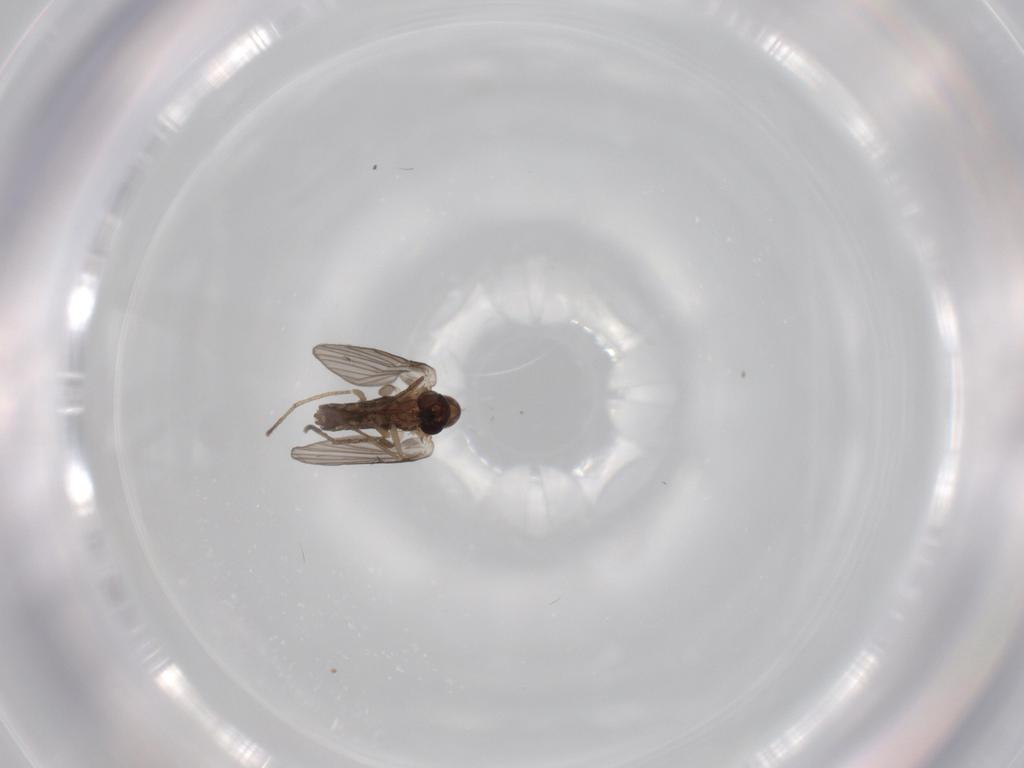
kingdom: Animalia
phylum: Arthropoda
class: Insecta
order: Diptera
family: Psychodidae
